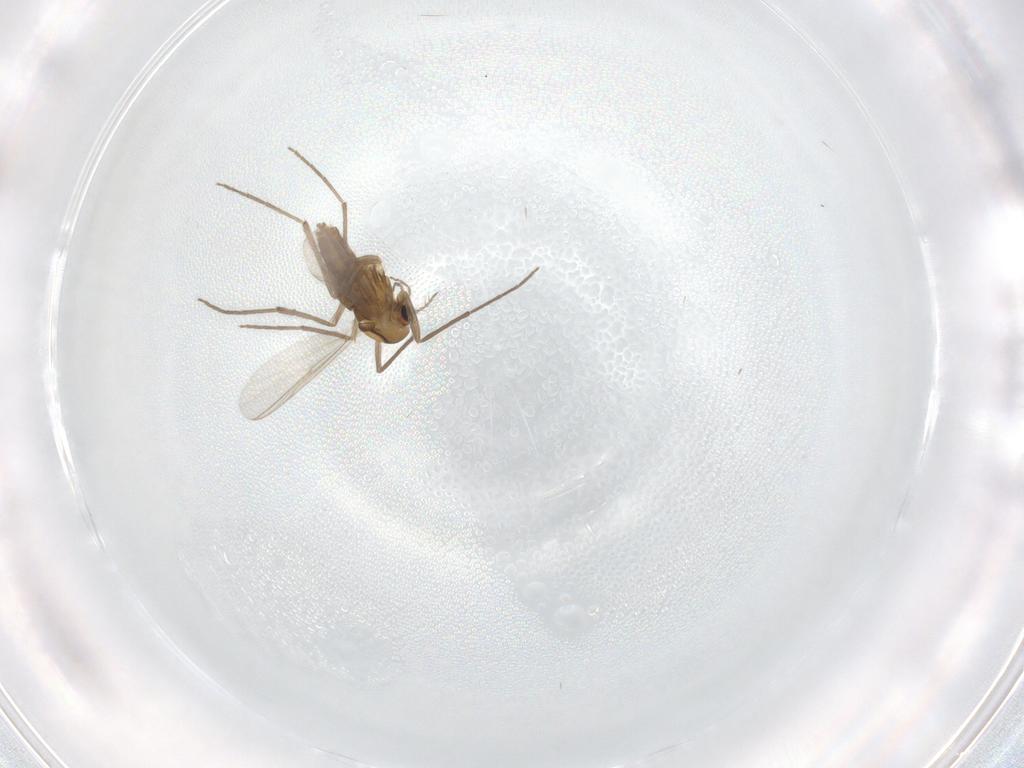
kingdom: Animalia
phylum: Arthropoda
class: Insecta
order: Diptera
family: Chironomidae
